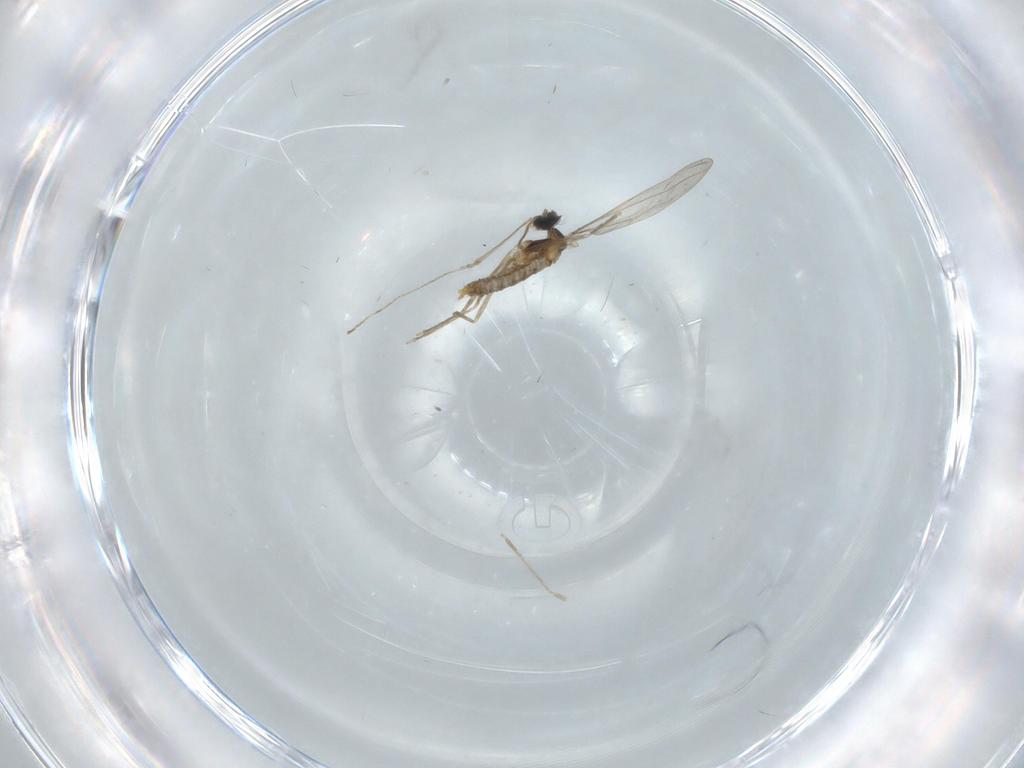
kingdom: Animalia
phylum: Arthropoda
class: Insecta
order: Diptera
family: Cecidomyiidae
